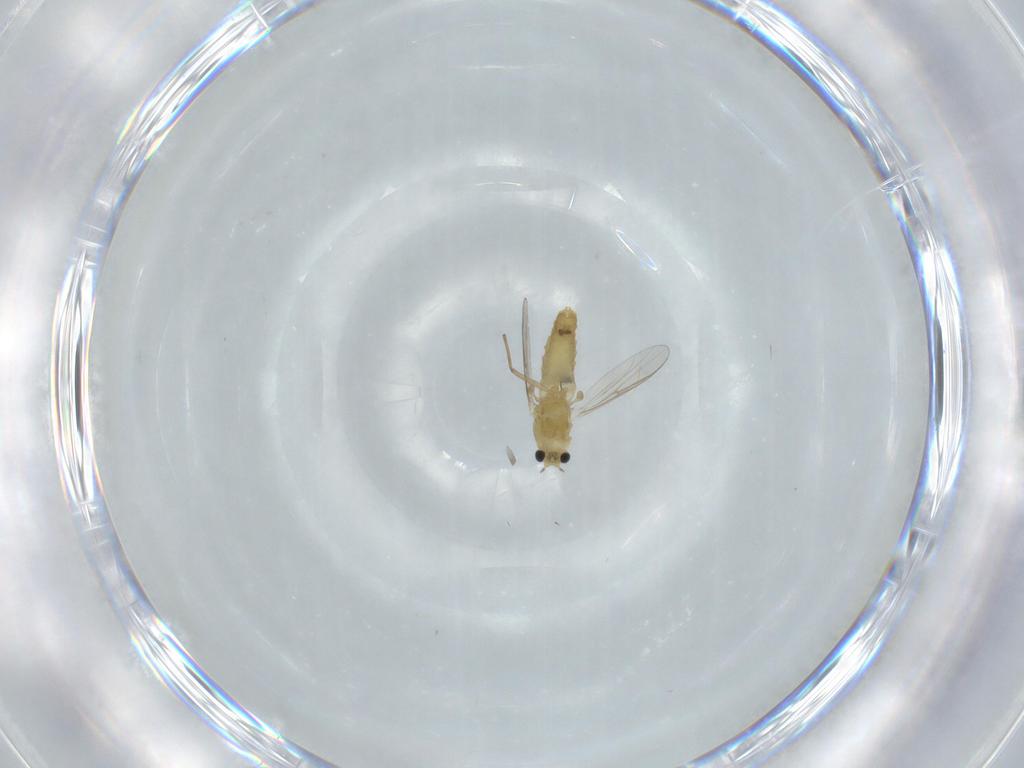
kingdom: Animalia
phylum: Arthropoda
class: Insecta
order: Diptera
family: Chironomidae
